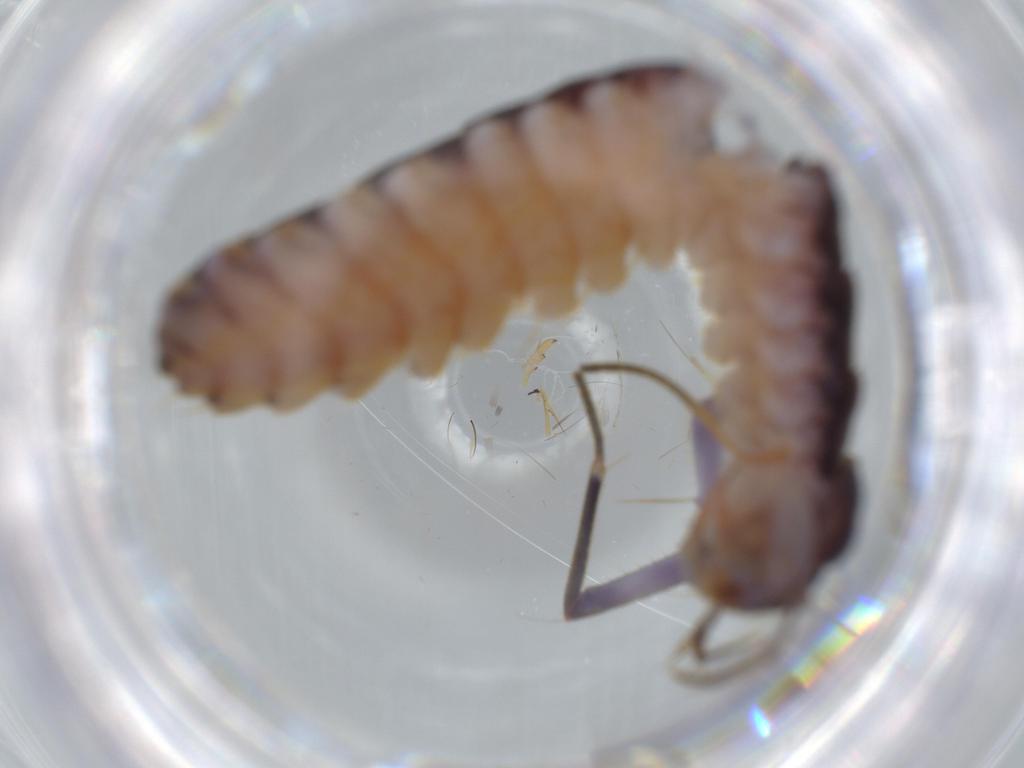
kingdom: Animalia
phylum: Arthropoda
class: Chilopoda
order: Scutigeromorpha
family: Scutigeridae
